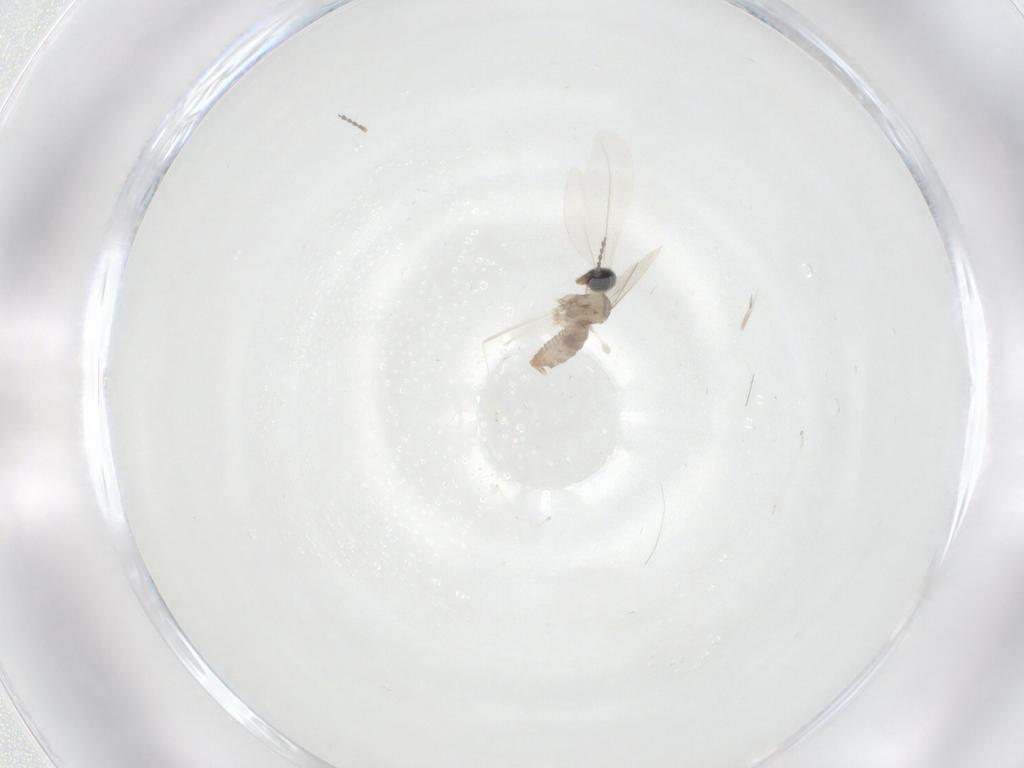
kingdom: Animalia
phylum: Arthropoda
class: Insecta
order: Diptera
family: Cecidomyiidae
